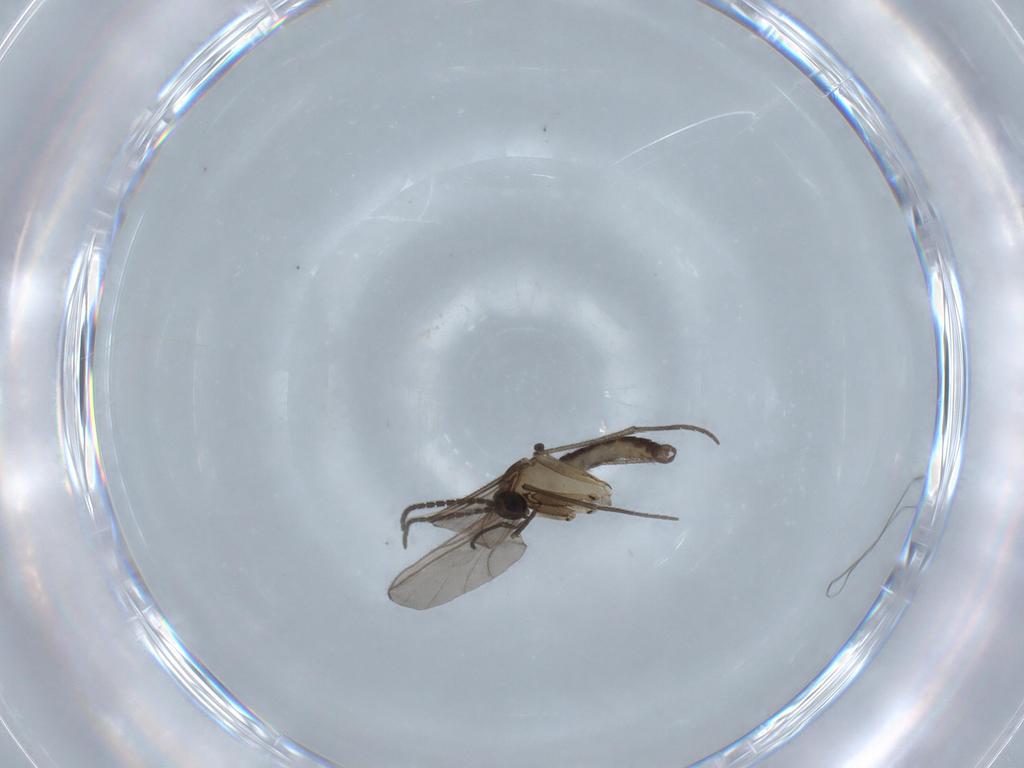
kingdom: Animalia
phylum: Arthropoda
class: Insecta
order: Diptera
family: Sciaridae
